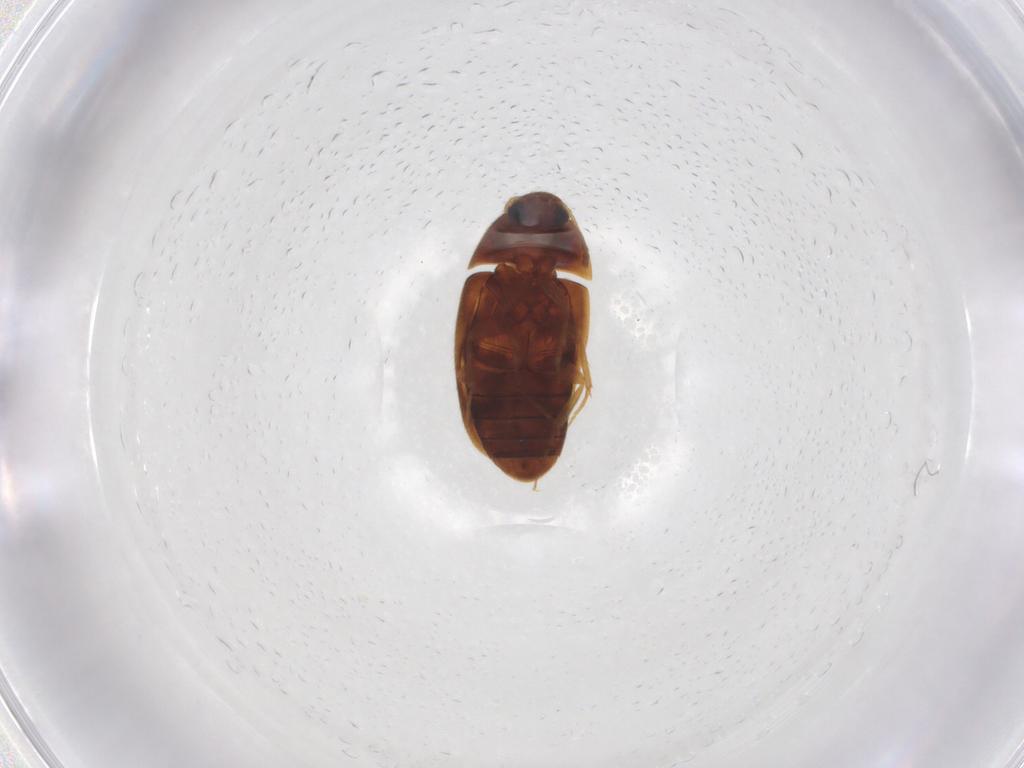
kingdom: Animalia
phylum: Arthropoda
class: Insecta
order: Coleoptera
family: Mycetophagidae
